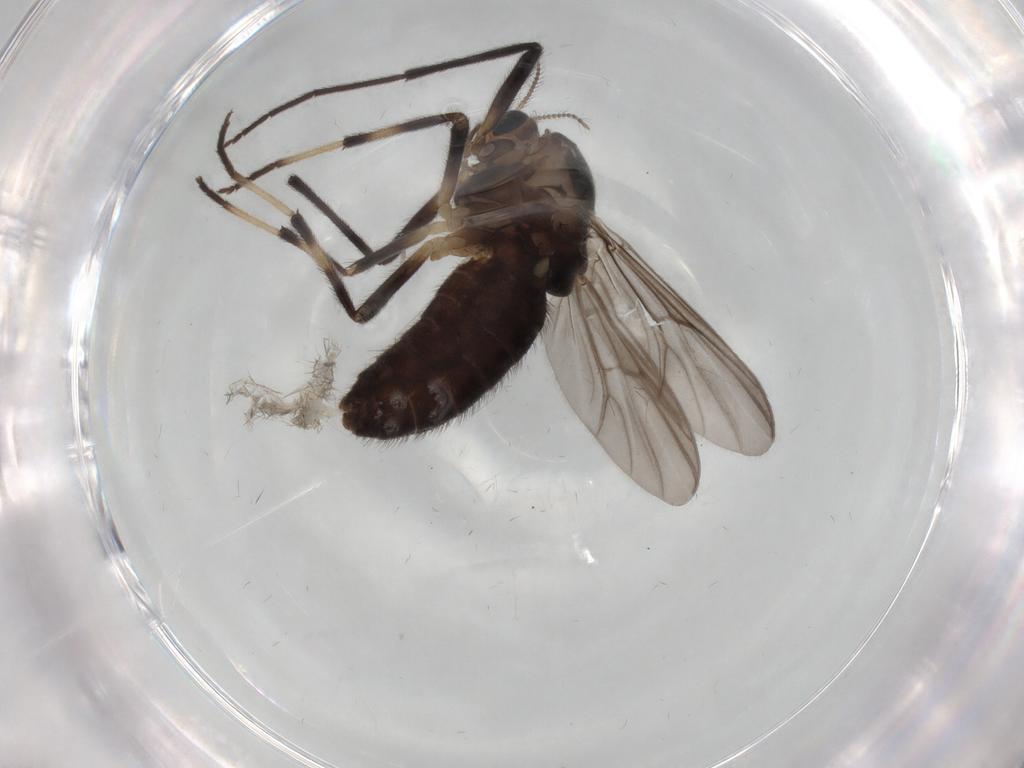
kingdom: Animalia
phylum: Arthropoda
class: Insecta
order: Diptera
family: Chironomidae
